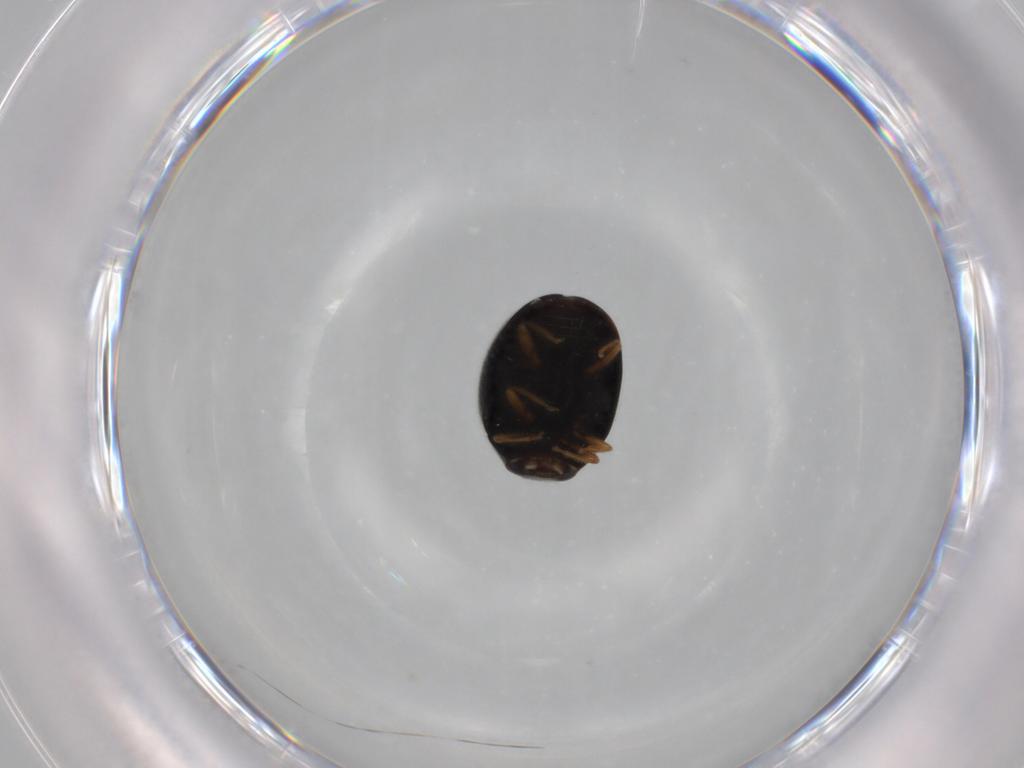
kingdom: Animalia
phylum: Arthropoda
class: Insecta
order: Coleoptera
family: Coccinellidae
